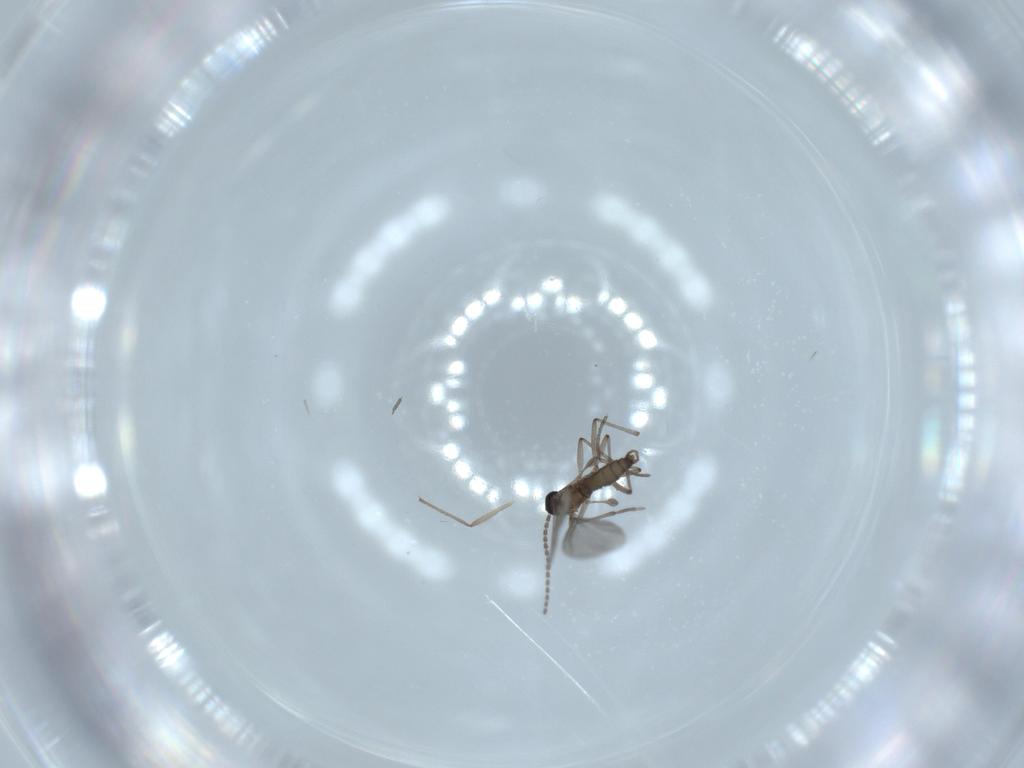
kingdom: Animalia
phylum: Arthropoda
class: Insecta
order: Diptera
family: Sciaridae
